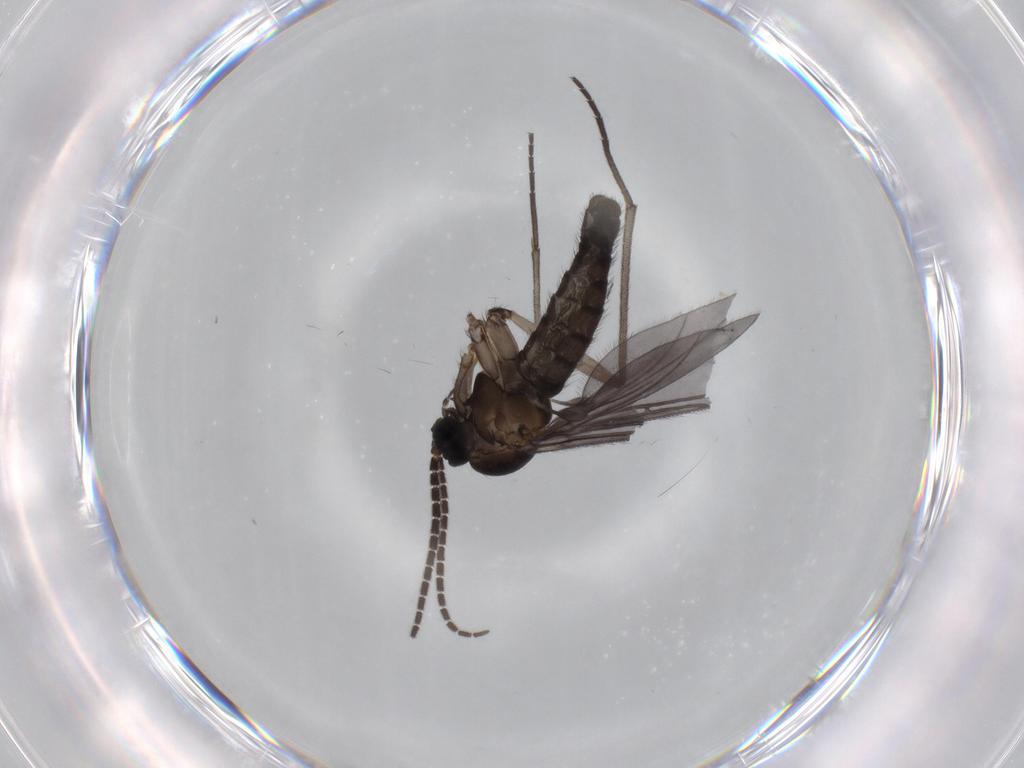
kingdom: Animalia
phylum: Arthropoda
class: Insecta
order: Diptera
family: Sciaridae
